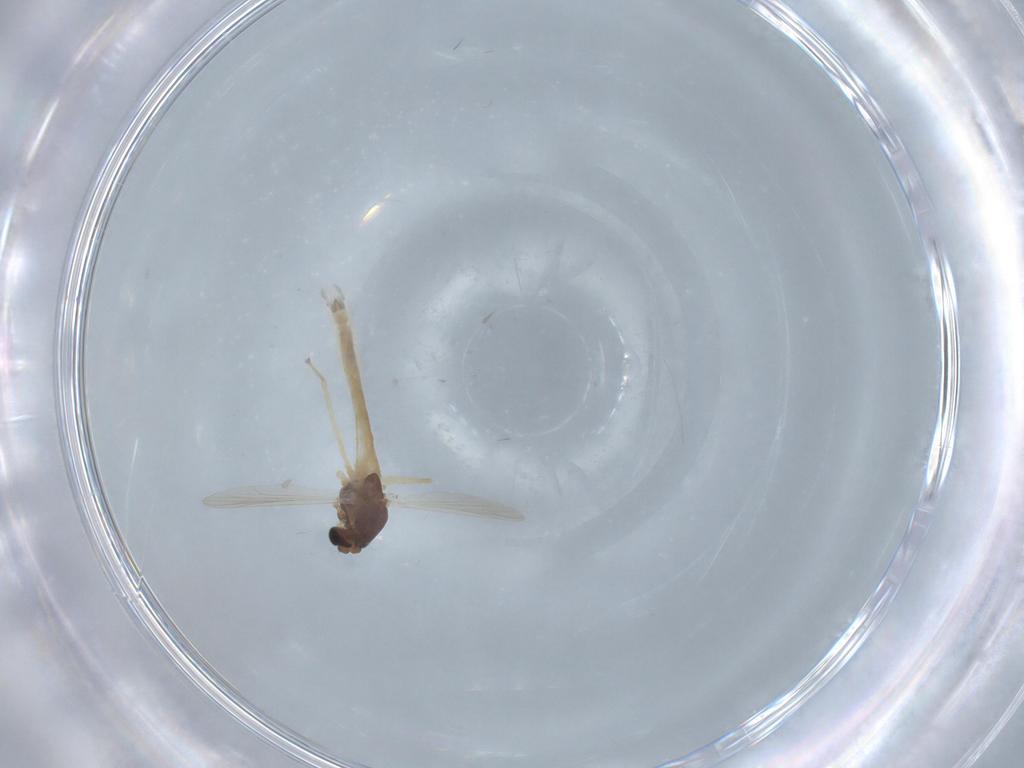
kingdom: Animalia
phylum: Arthropoda
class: Insecta
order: Diptera
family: Chironomidae
